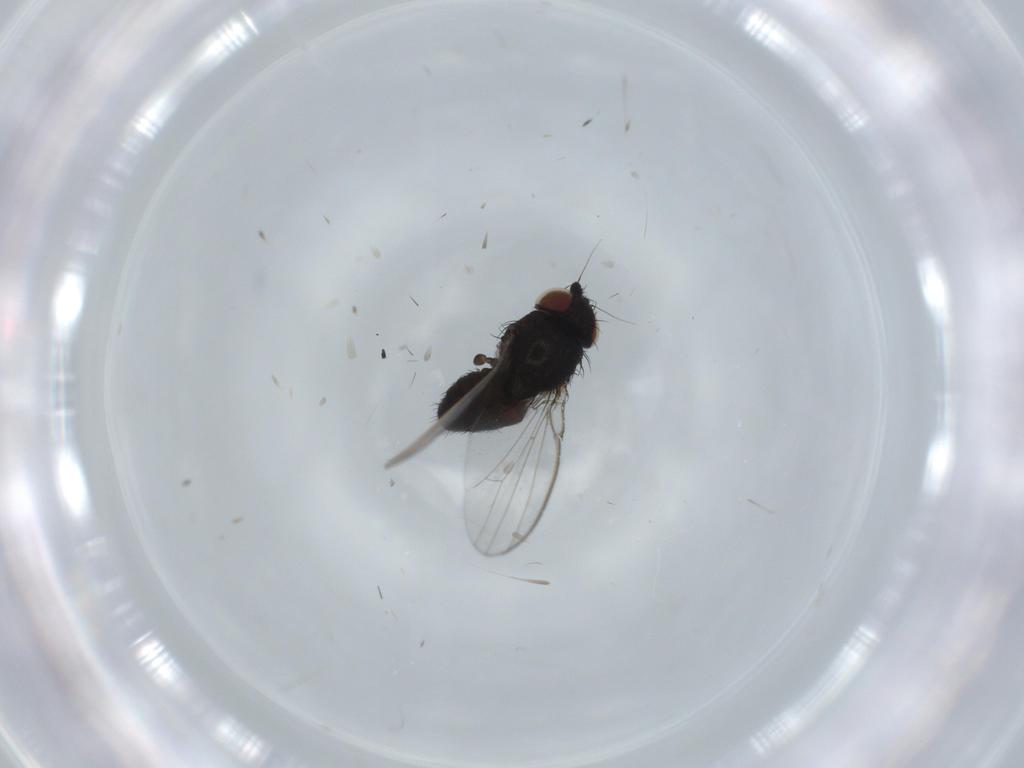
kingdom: Animalia
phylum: Arthropoda
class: Insecta
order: Diptera
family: Milichiidae
